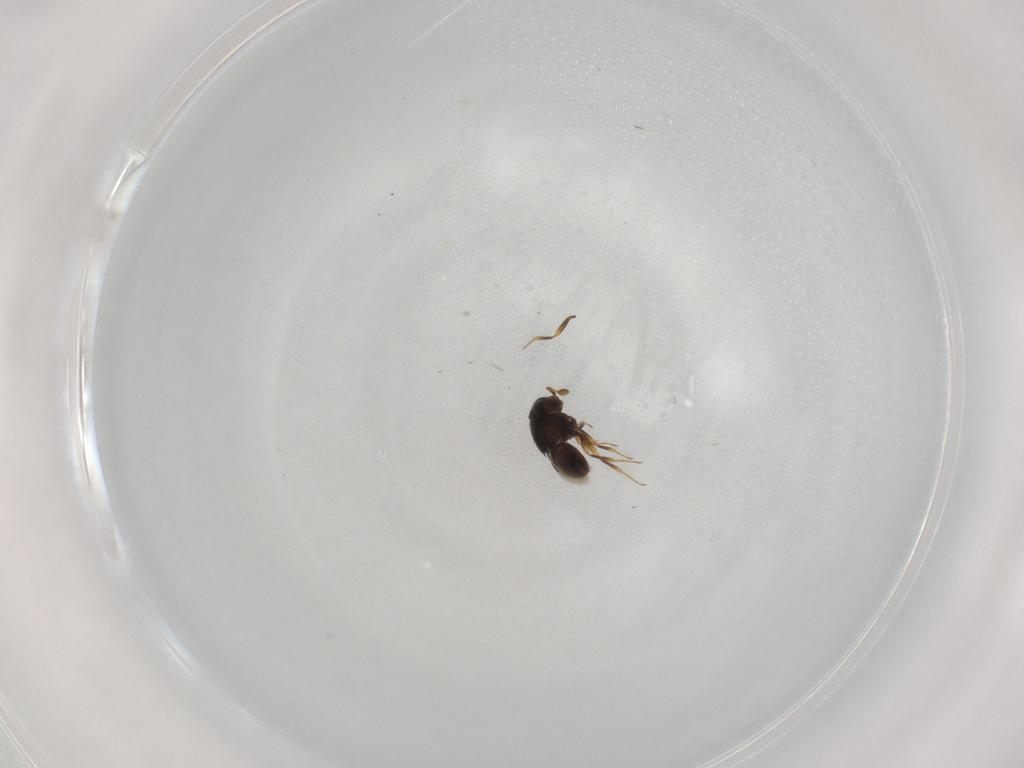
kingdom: Animalia
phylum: Arthropoda
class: Insecta
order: Hymenoptera
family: Scelionidae
